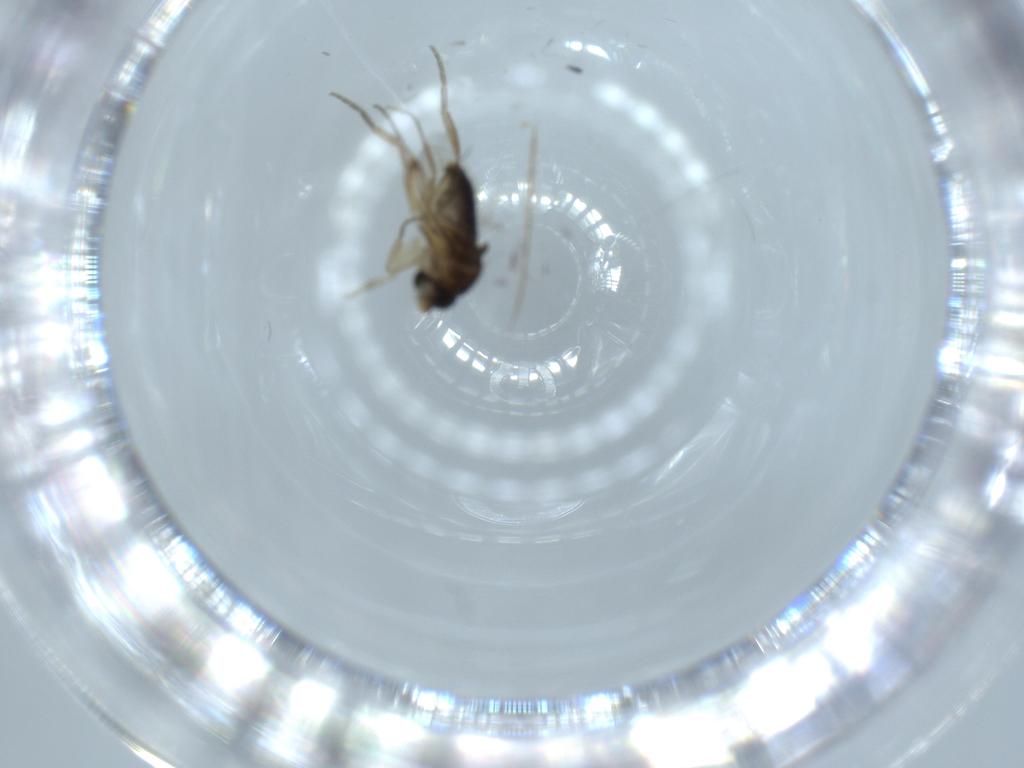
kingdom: Animalia
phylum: Arthropoda
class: Insecta
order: Diptera
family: Phoridae
